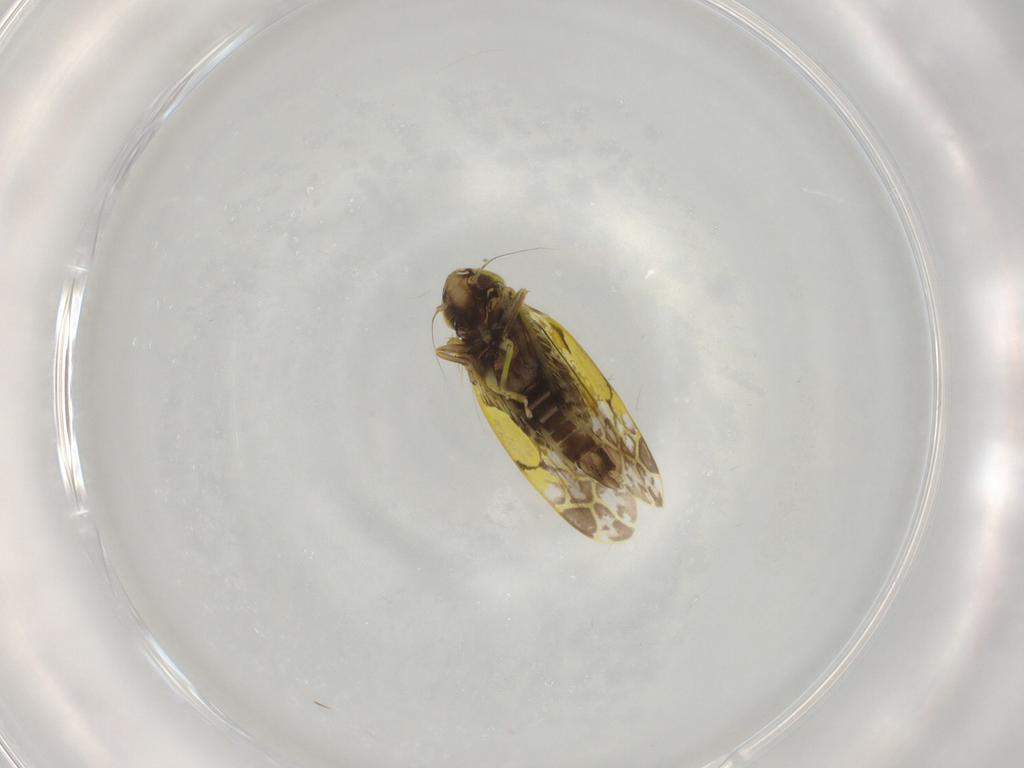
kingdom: Animalia
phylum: Arthropoda
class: Insecta
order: Hemiptera
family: Cicadellidae
